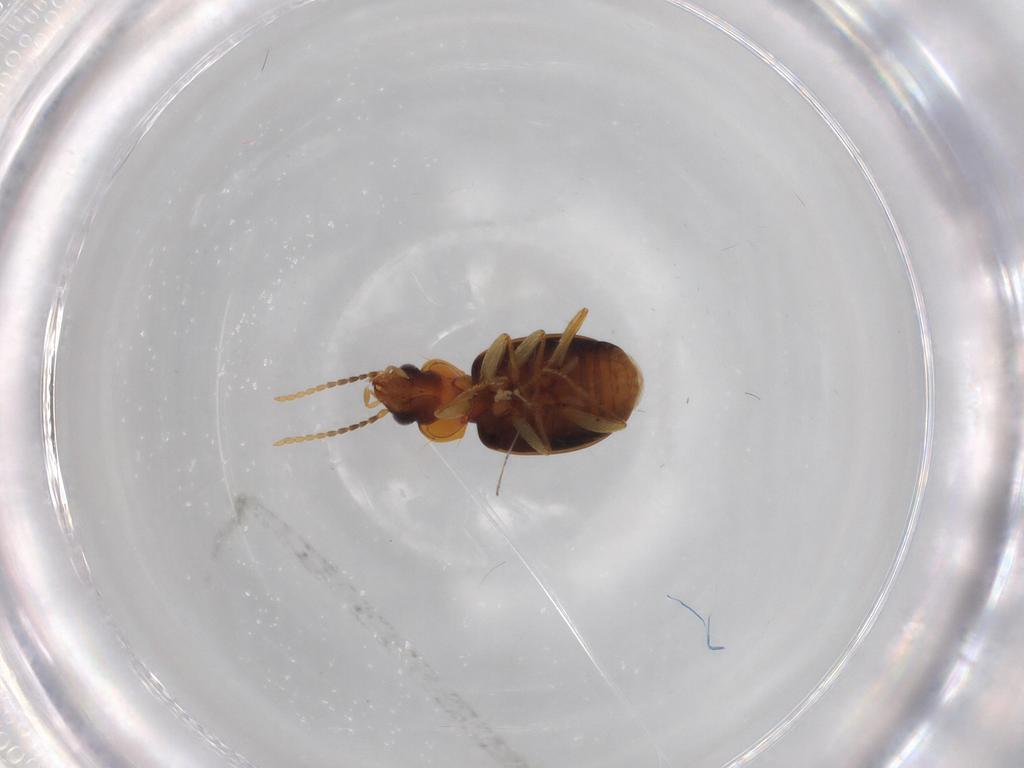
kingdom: Animalia
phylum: Arthropoda
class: Insecta
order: Coleoptera
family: Carabidae
